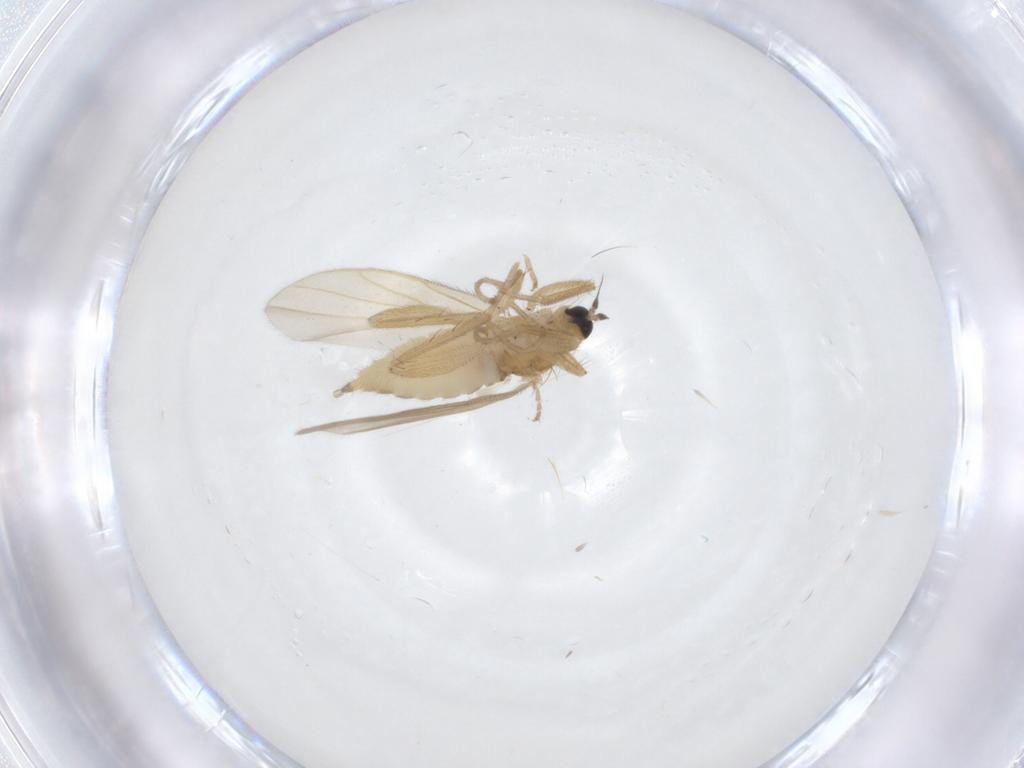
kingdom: Animalia
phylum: Arthropoda
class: Insecta
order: Diptera
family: Hybotidae
